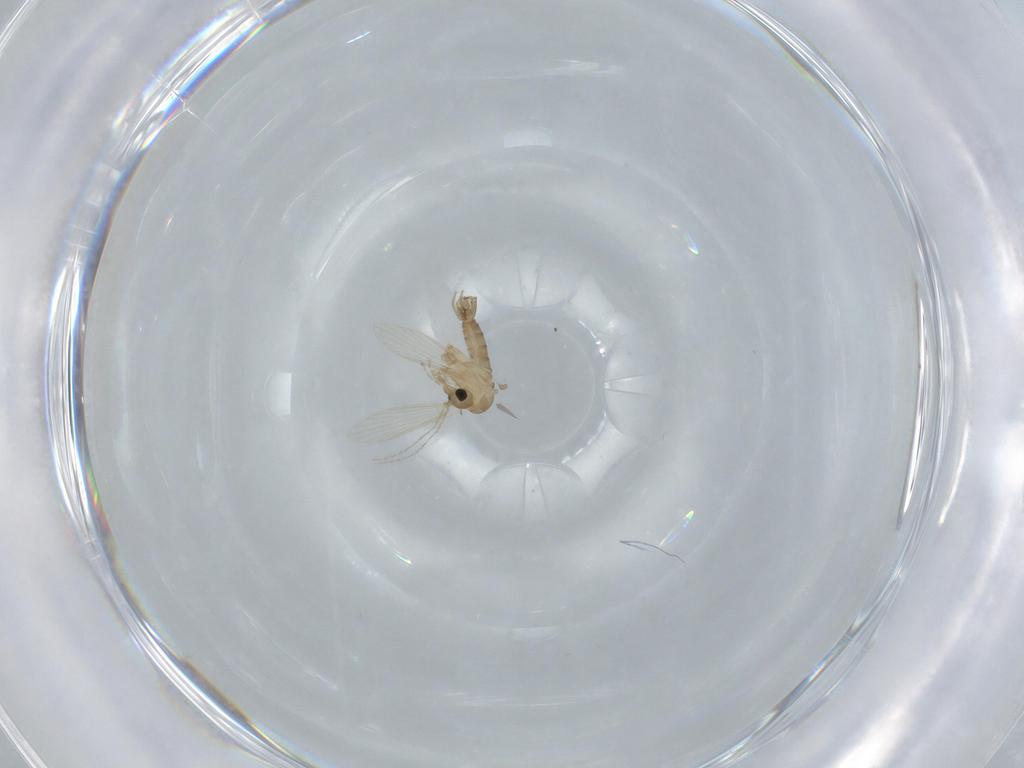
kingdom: Animalia
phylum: Arthropoda
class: Insecta
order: Diptera
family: Psychodidae
